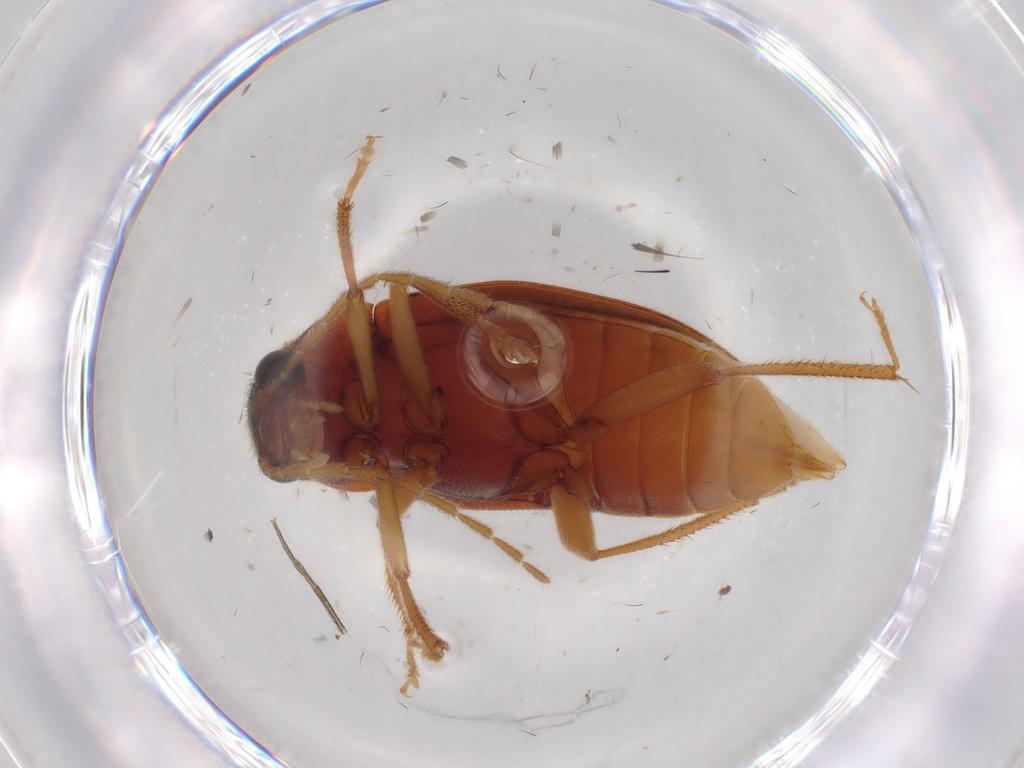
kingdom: Animalia
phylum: Arthropoda
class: Insecta
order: Coleoptera
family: Ptilodactylidae
